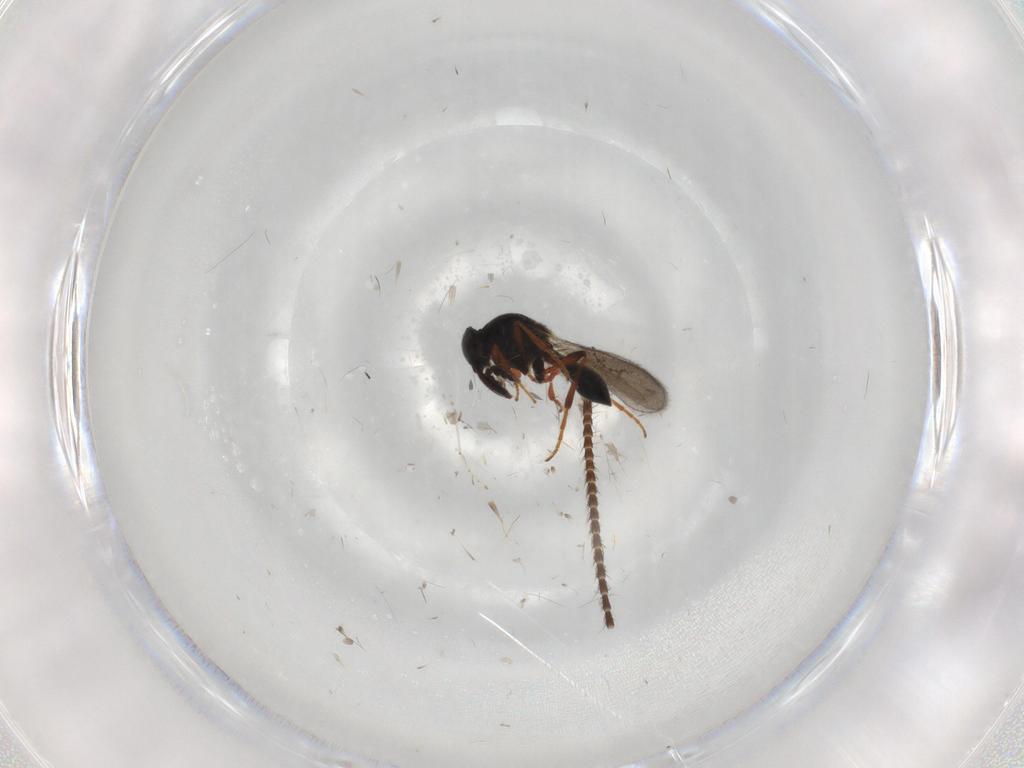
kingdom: Animalia
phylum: Arthropoda
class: Insecta
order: Hymenoptera
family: Platygastridae
